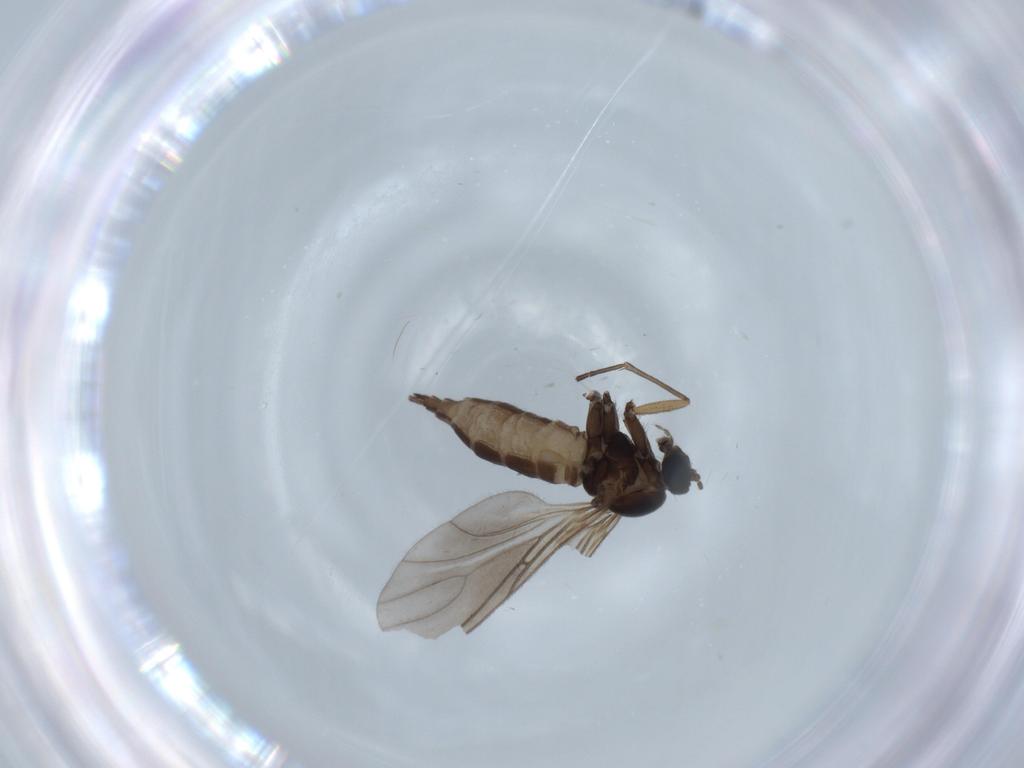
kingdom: Animalia
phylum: Arthropoda
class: Insecta
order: Diptera
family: Sciaridae
